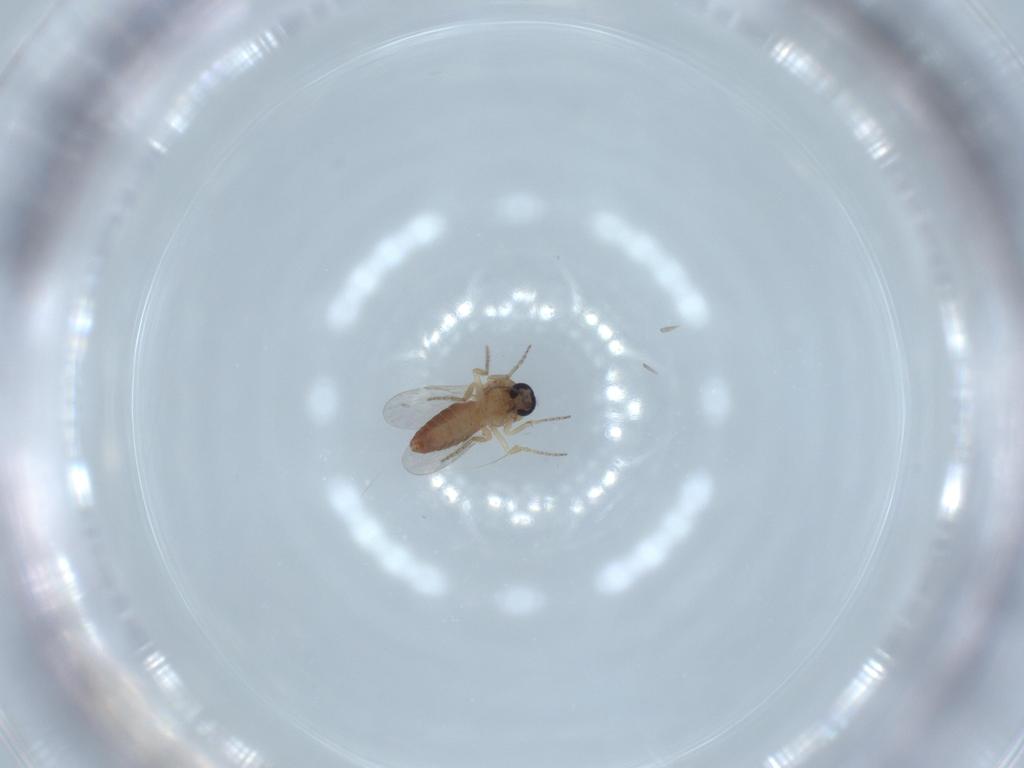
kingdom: Animalia
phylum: Arthropoda
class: Insecta
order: Diptera
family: Ceratopogonidae
